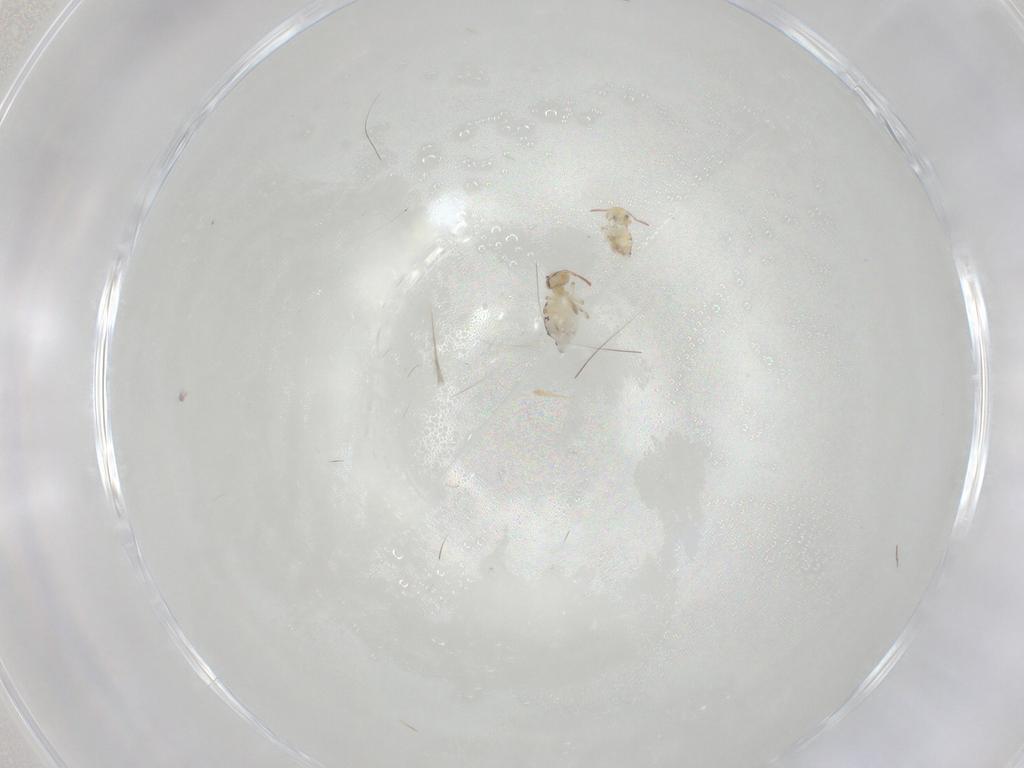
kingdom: Animalia
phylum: Arthropoda
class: Collembola
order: Symphypleona
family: Bourletiellidae
